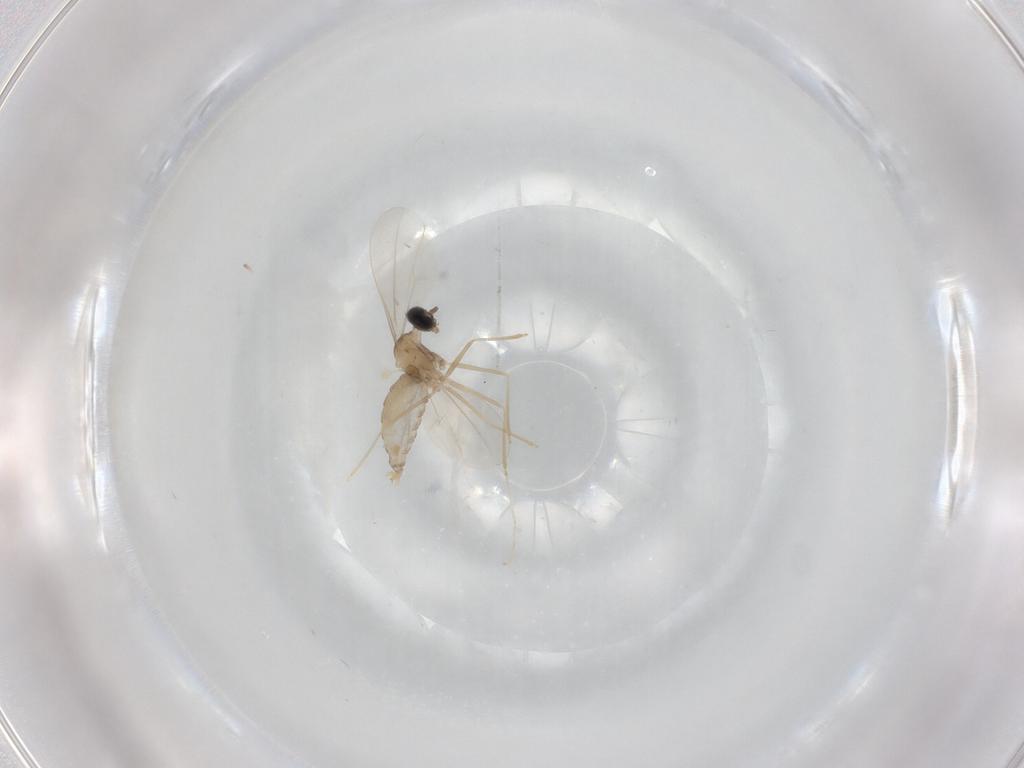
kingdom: Animalia
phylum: Arthropoda
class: Insecta
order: Diptera
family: Cecidomyiidae
